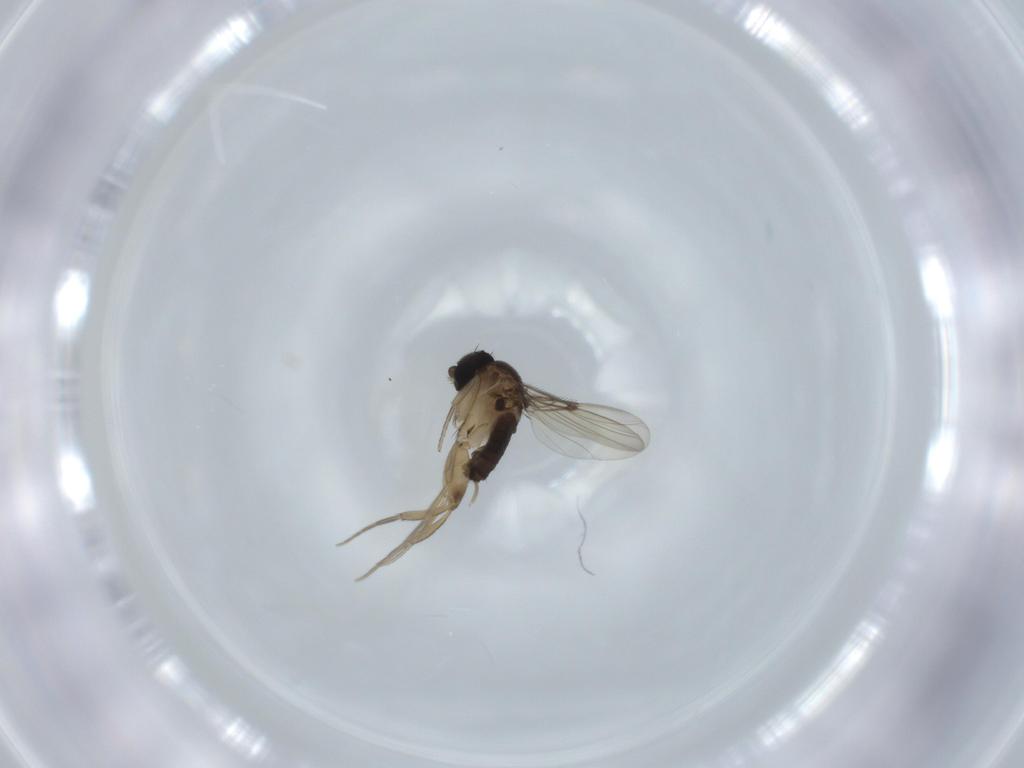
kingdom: Animalia
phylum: Arthropoda
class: Insecta
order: Diptera
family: Phoridae
